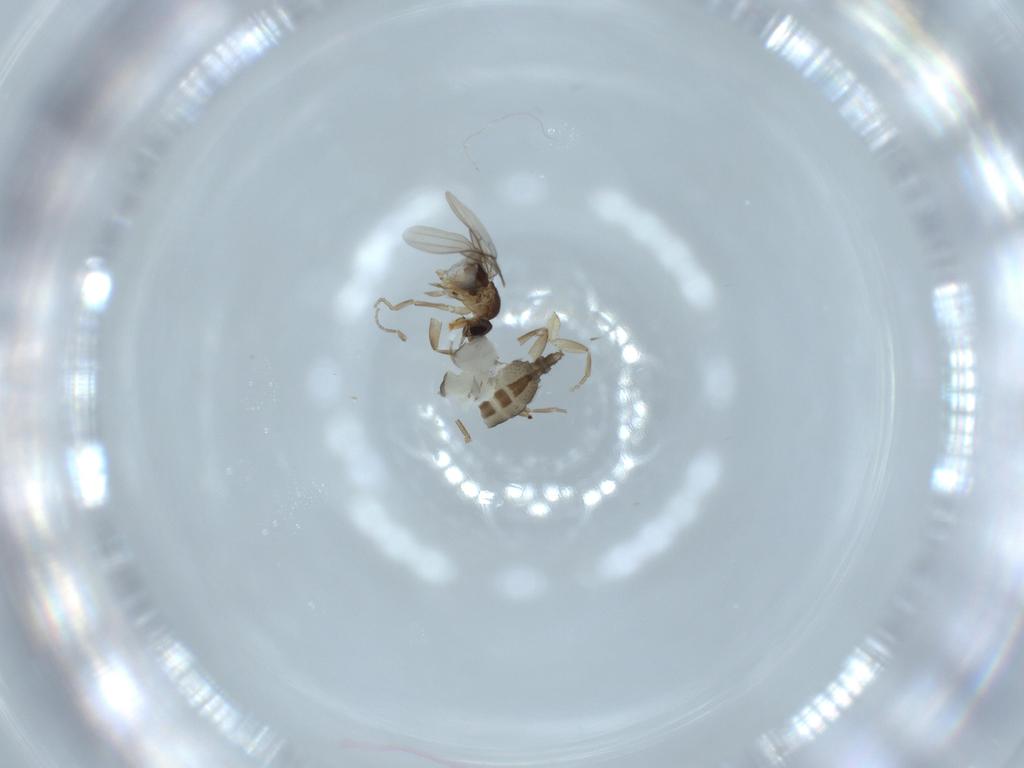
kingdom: Animalia
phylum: Arthropoda
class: Insecta
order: Diptera
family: Phoridae
